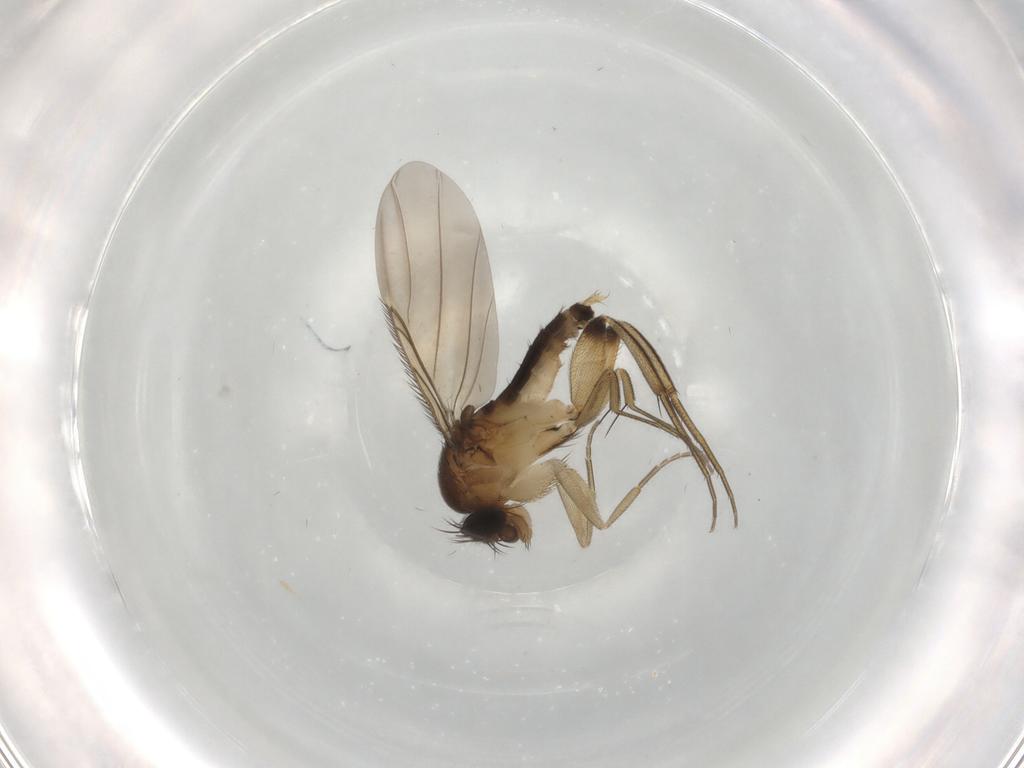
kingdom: Animalia
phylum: Arthropoda
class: Insecta
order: Diptera
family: Phoridae
